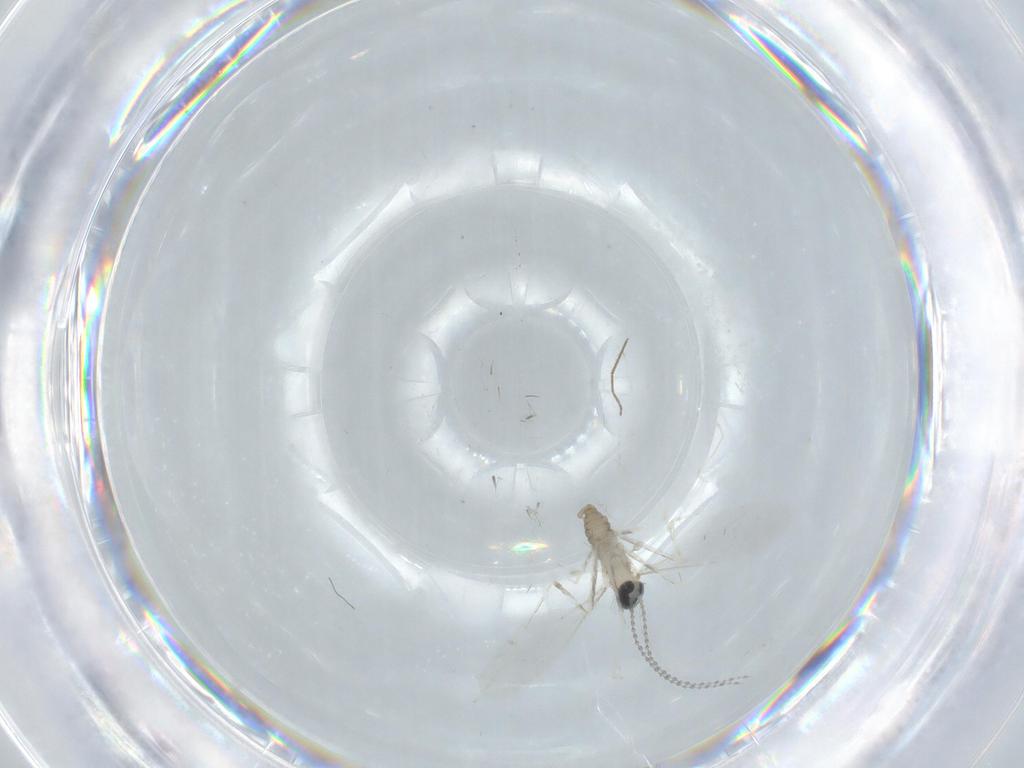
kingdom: Animalia
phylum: Arthropoda
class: Insecta
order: Diptera
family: Cecidomyiidae
